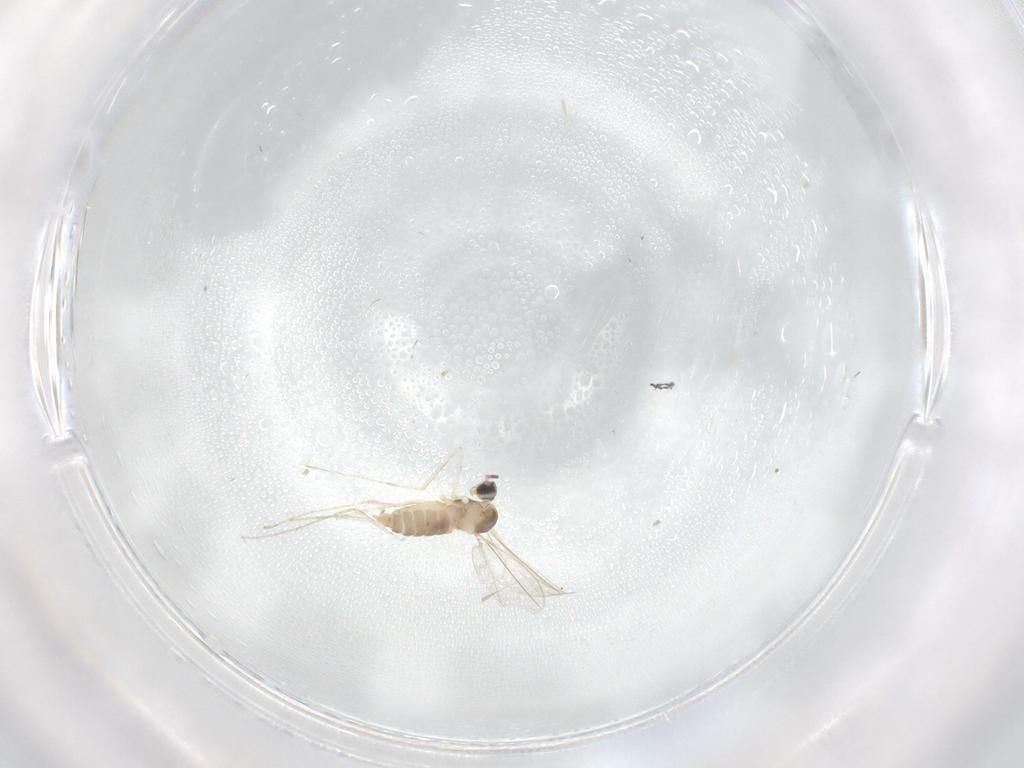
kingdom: Animalia
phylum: Arthropoda
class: Insecta
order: Diptera
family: Cecidomyiidae
